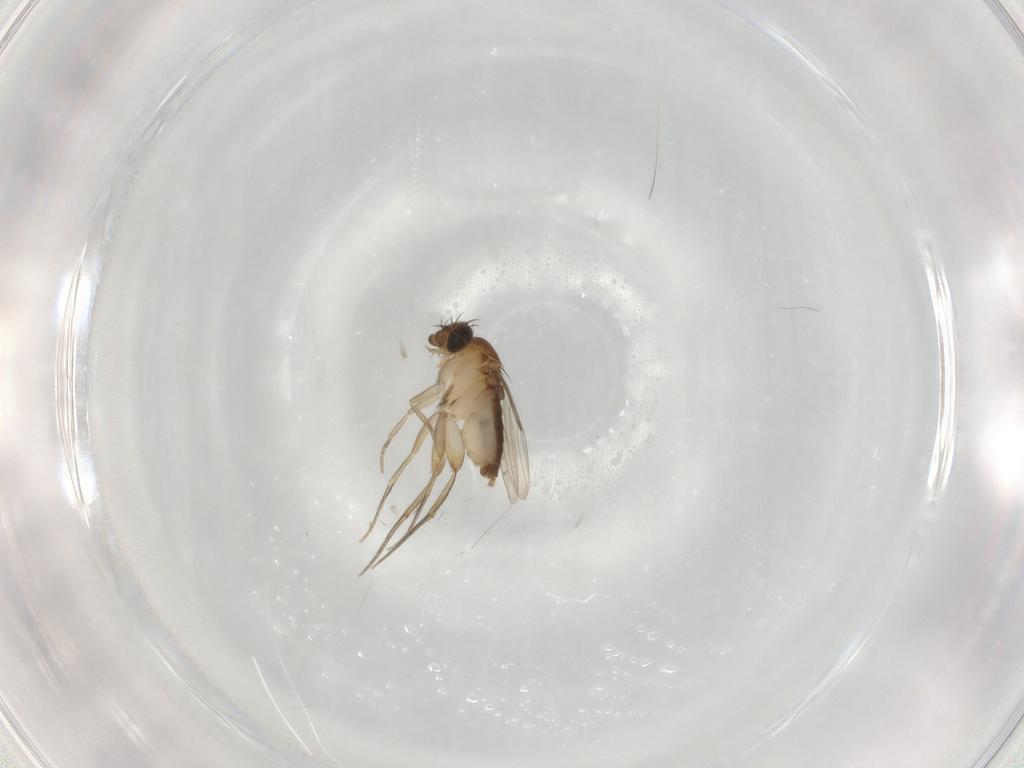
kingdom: Animalia
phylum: Arthropoda
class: Insecta
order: Diptera
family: Phoridae
